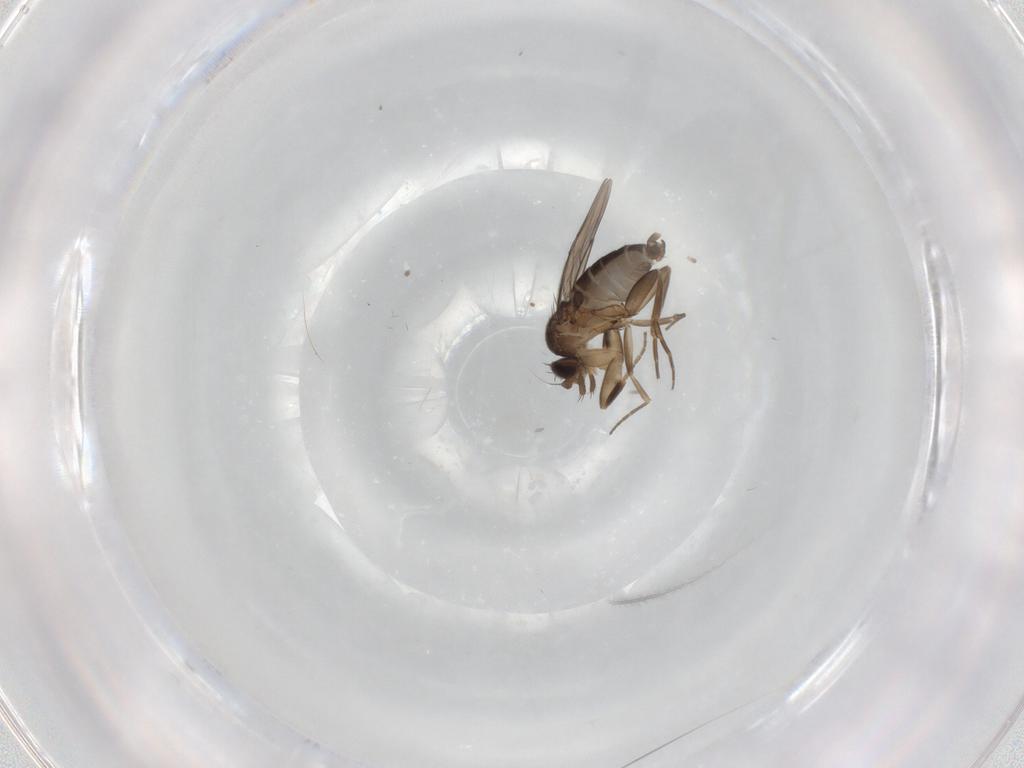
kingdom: Animalia
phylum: Arthropoda
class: Insecta
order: Diptera
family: Phoridae
